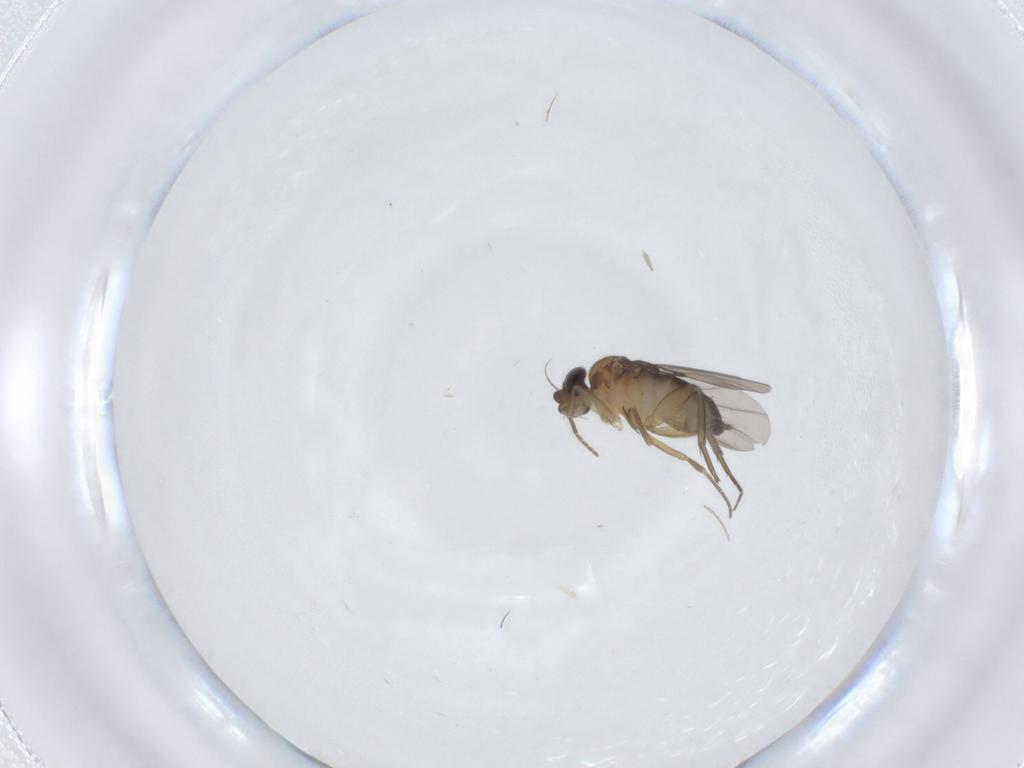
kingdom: Animalia
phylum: Arthropoda
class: Insecta
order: Diptera
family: Phoridae
